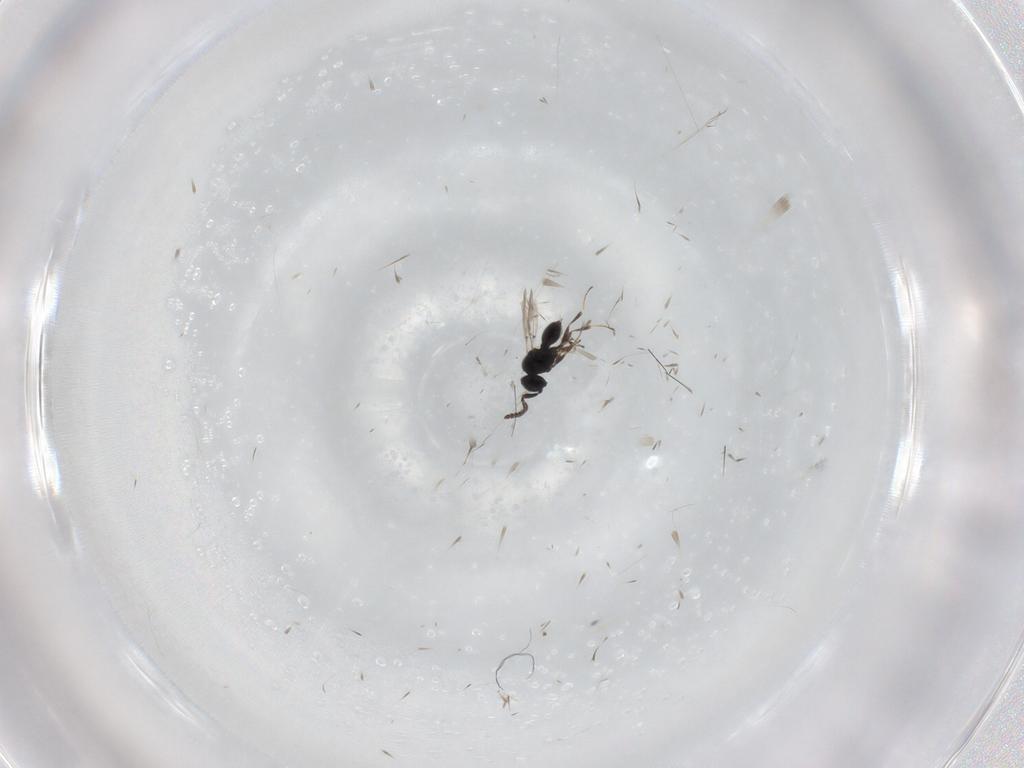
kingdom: Animalia
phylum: Arthropoda
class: Insecta
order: Hymenoptera
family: Scelionidae
